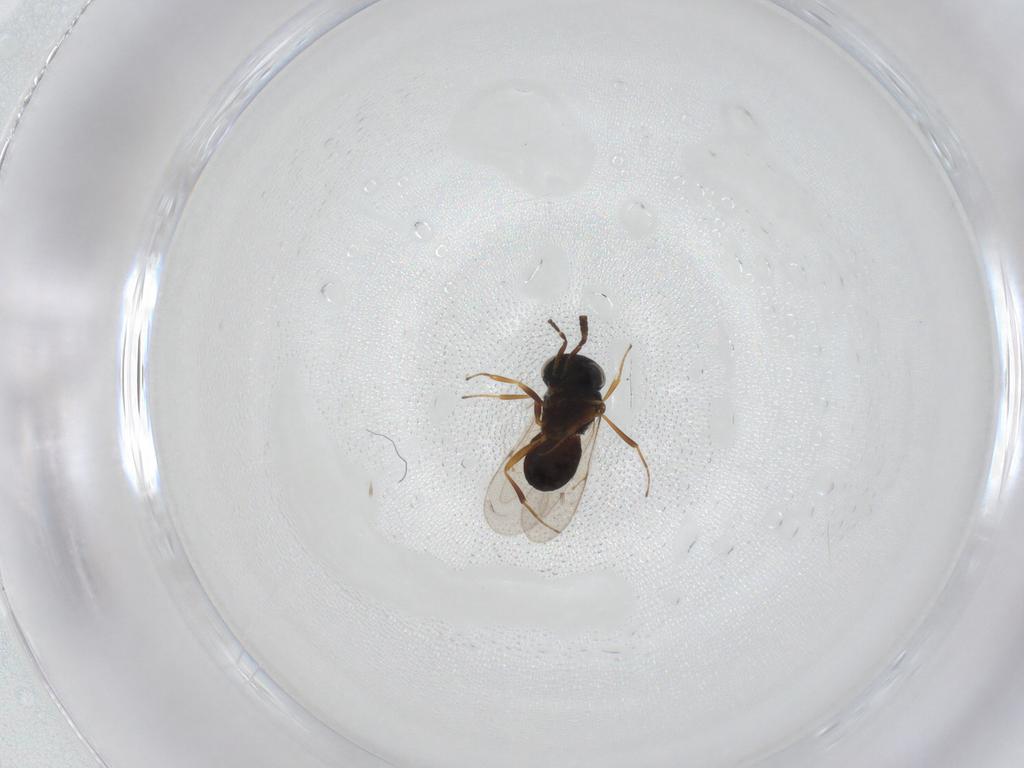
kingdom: Animalia
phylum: Arthropoda
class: Insecta
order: Hymenoptera
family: Scelionidae
